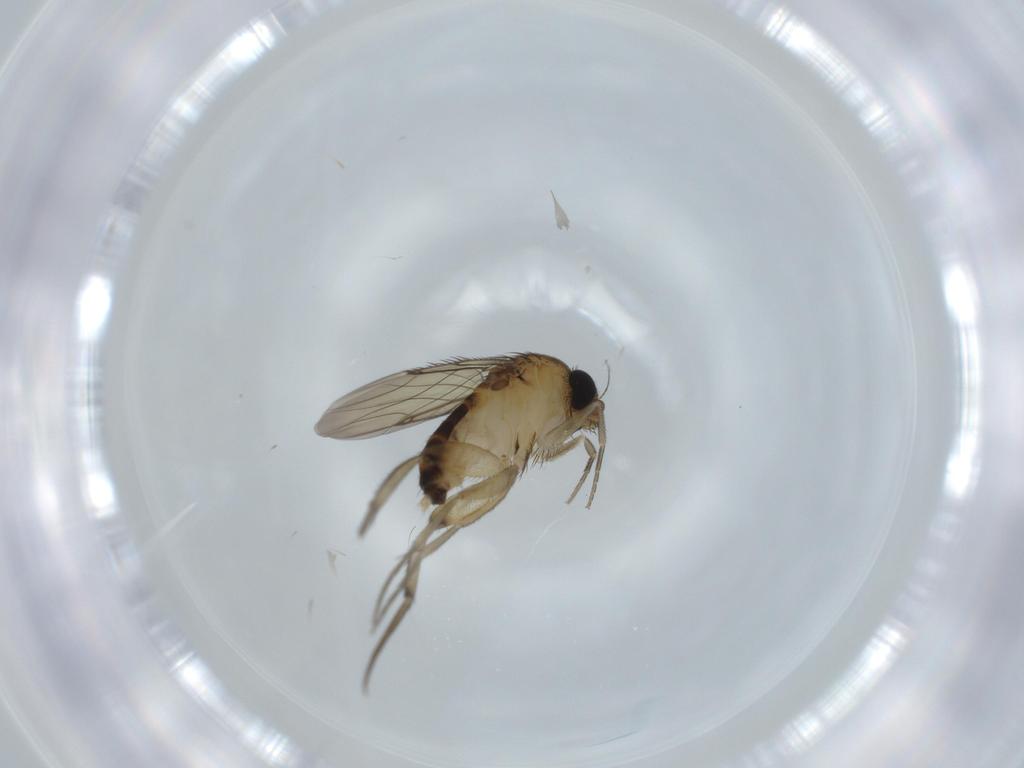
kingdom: Animalia
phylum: Arthropoda
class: Insecta
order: Diptera
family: Phoridae
